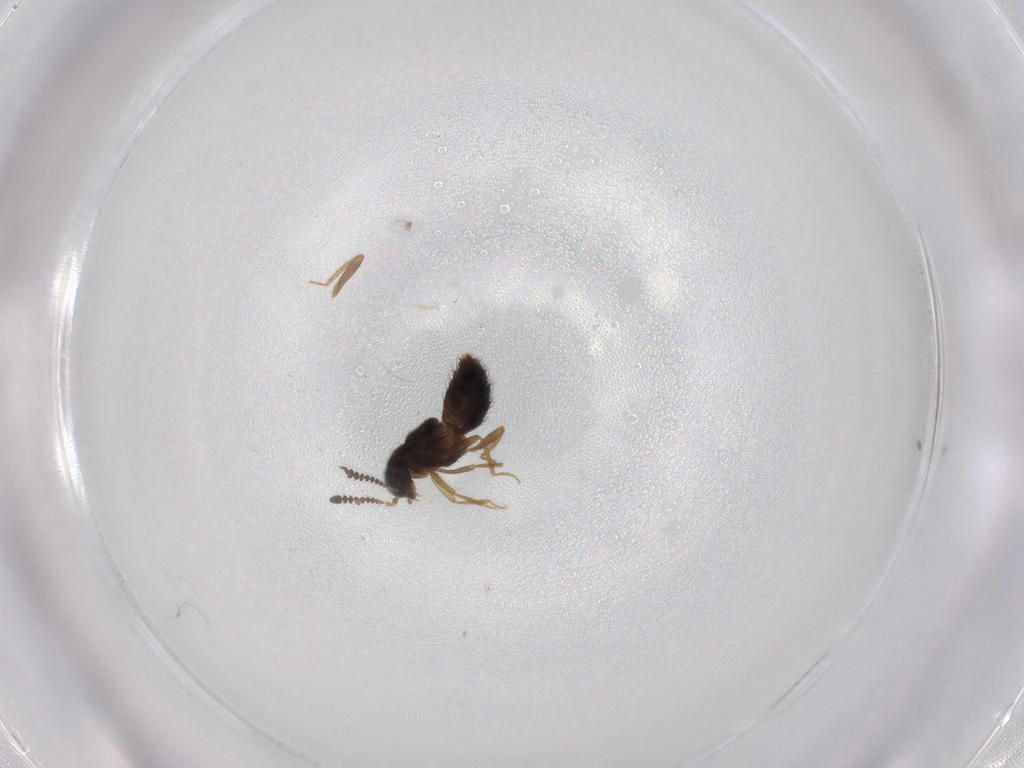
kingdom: Animalia
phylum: Arthropoda
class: Insecta
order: Coleoptera
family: Staphylinidae
